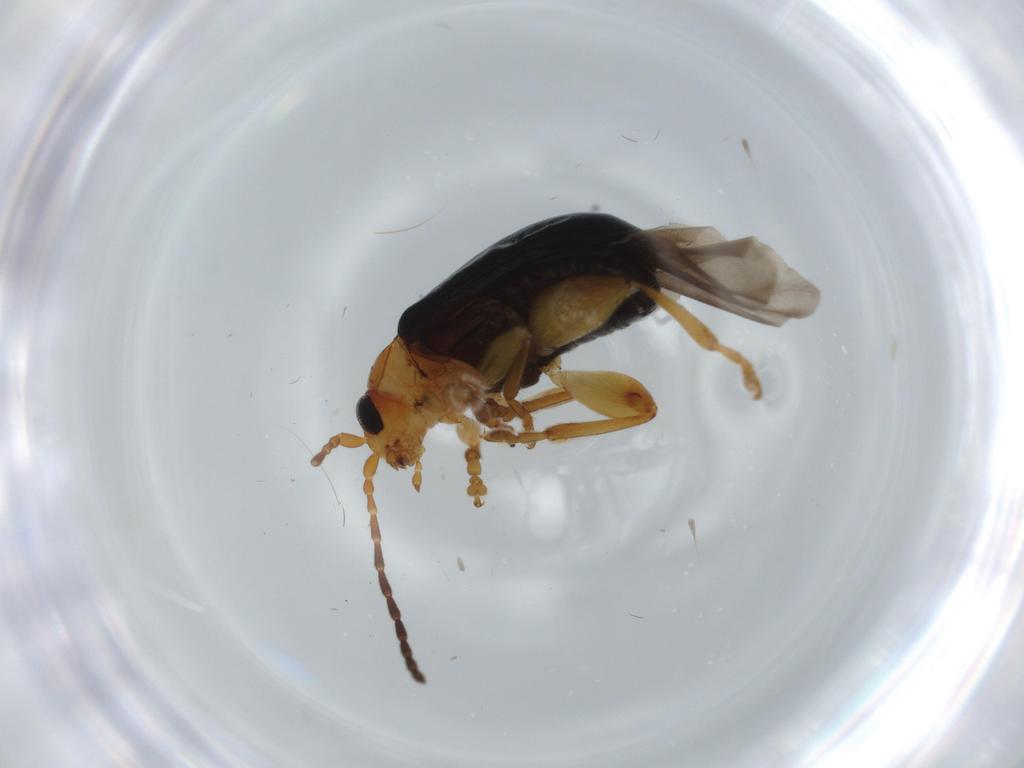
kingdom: Animalia
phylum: Arthropoda
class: Insecta
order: Coleoptera
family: Chrysomelidae
